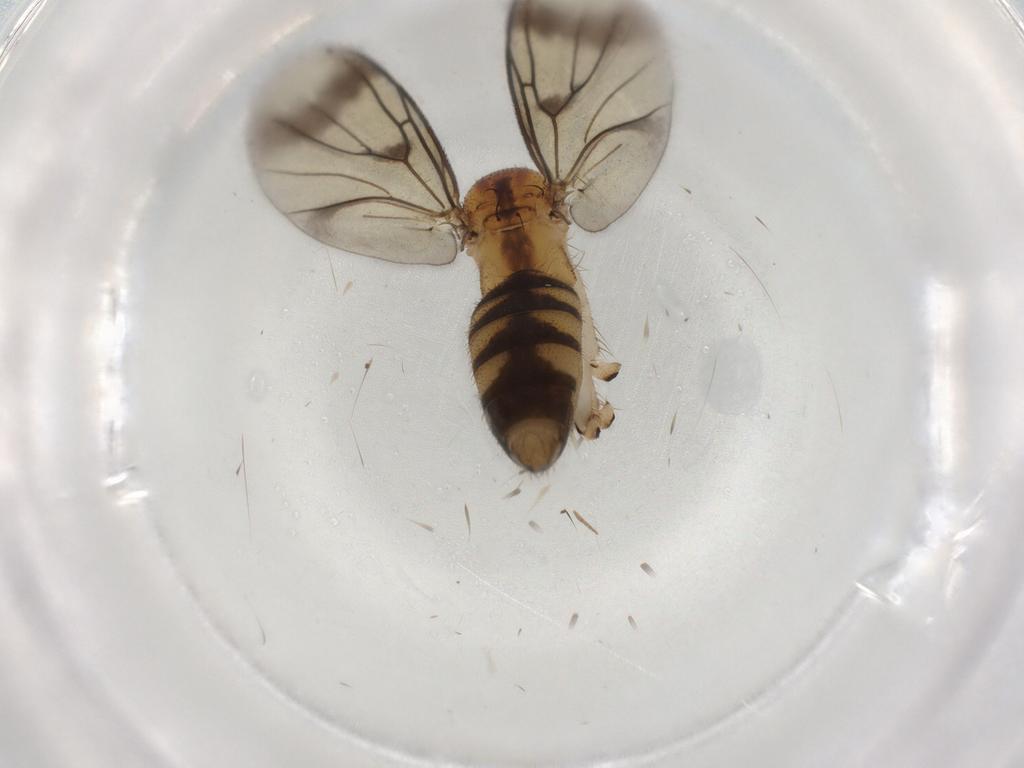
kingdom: Animalia
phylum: Arthropoda
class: Insecta
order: Diptera
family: Mycetophilidae
